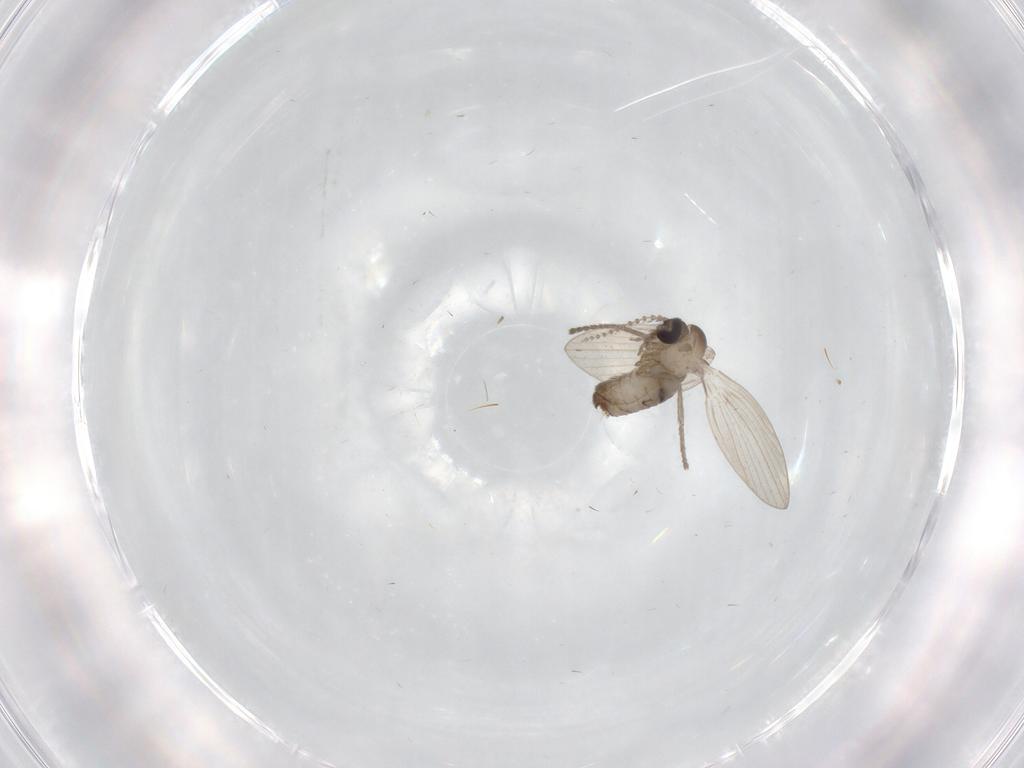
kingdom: Animalia
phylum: Arthropoda
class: Insecta
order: Diptera
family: Psychodidae
